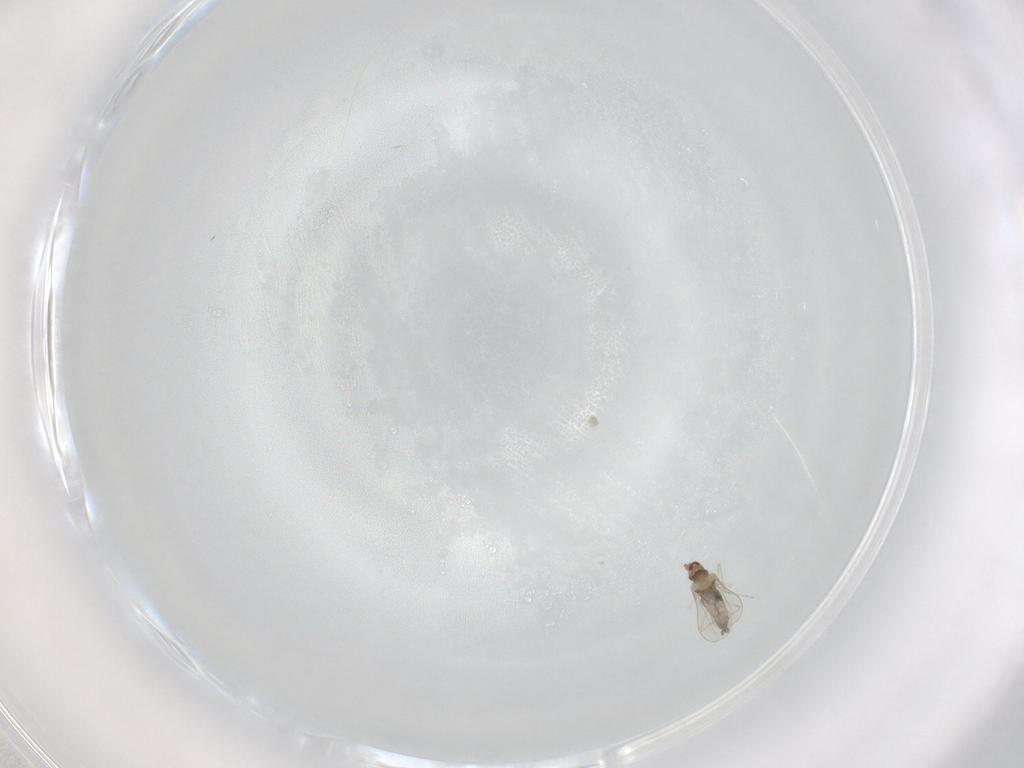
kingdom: Animalia
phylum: Arthropoda
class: Insecta
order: Diptera
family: Cecidomyiidae
